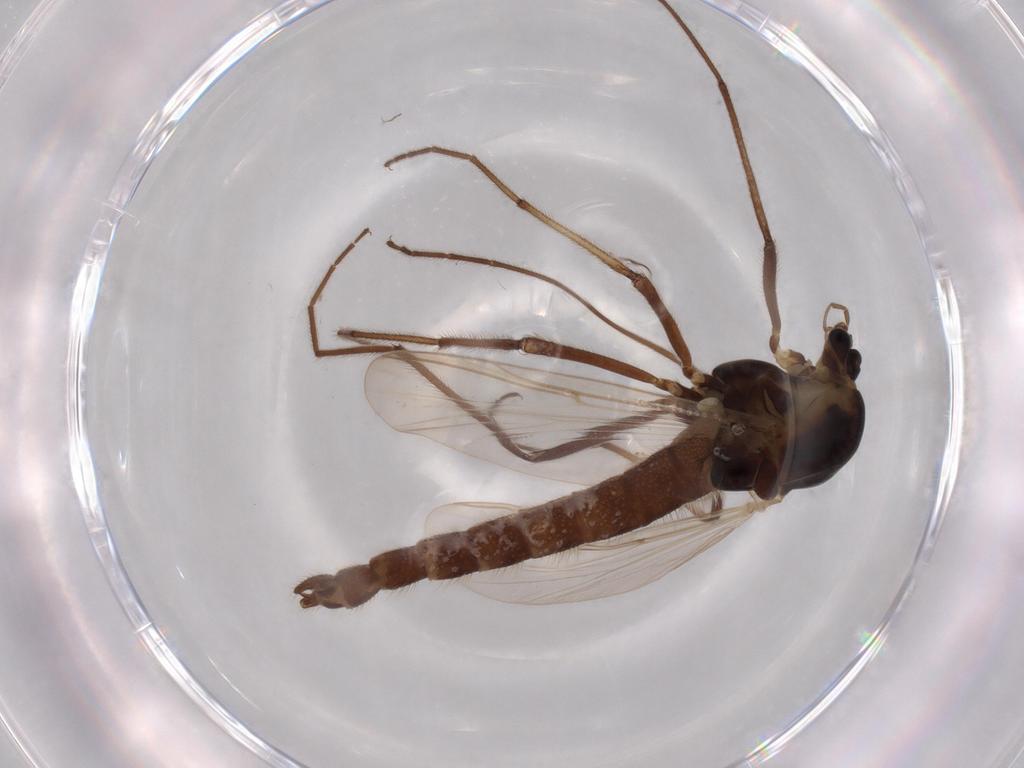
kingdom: Animalia
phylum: Arthropoda
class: Insecta
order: Diptera
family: Agromyzidae
